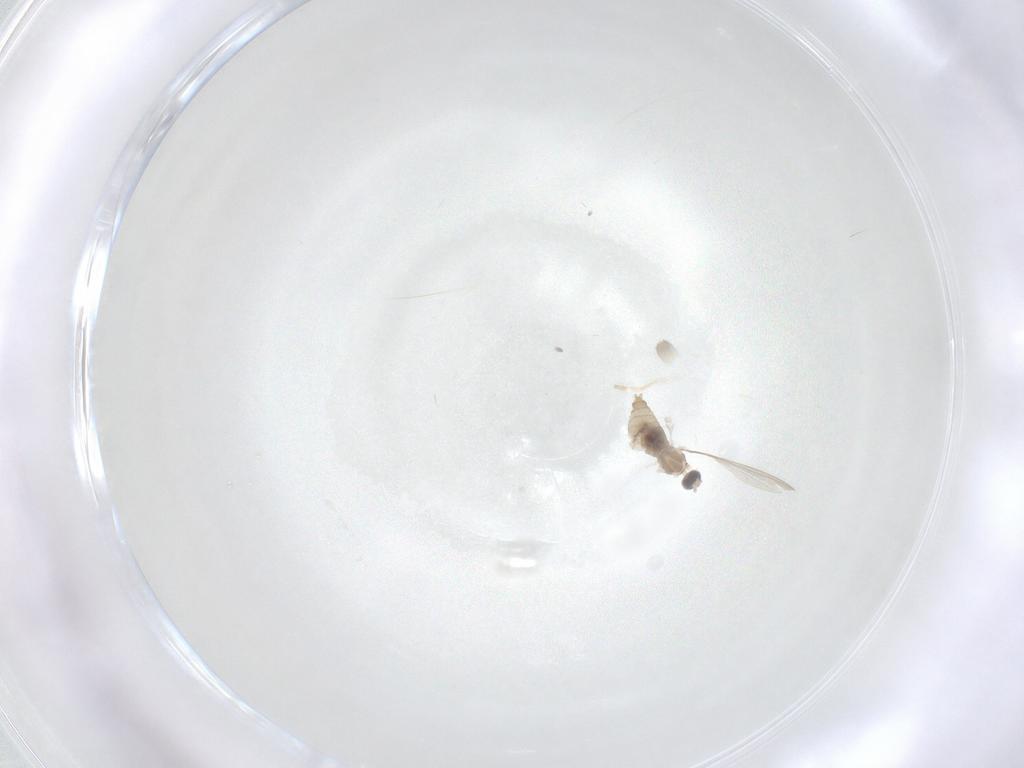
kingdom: Animalia
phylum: Arthropoda
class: Insecta
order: Diptera
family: Cecidomyiidae
